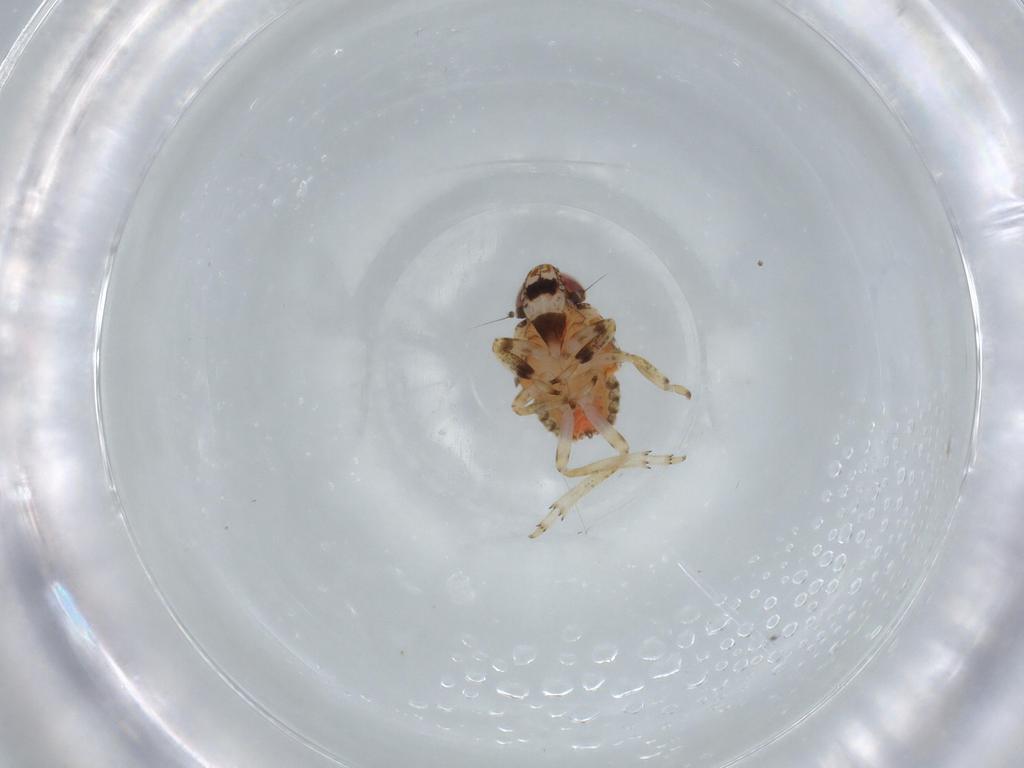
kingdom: Animalia
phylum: Arthropoda
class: Insecta
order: Hemiptera
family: Issidae
